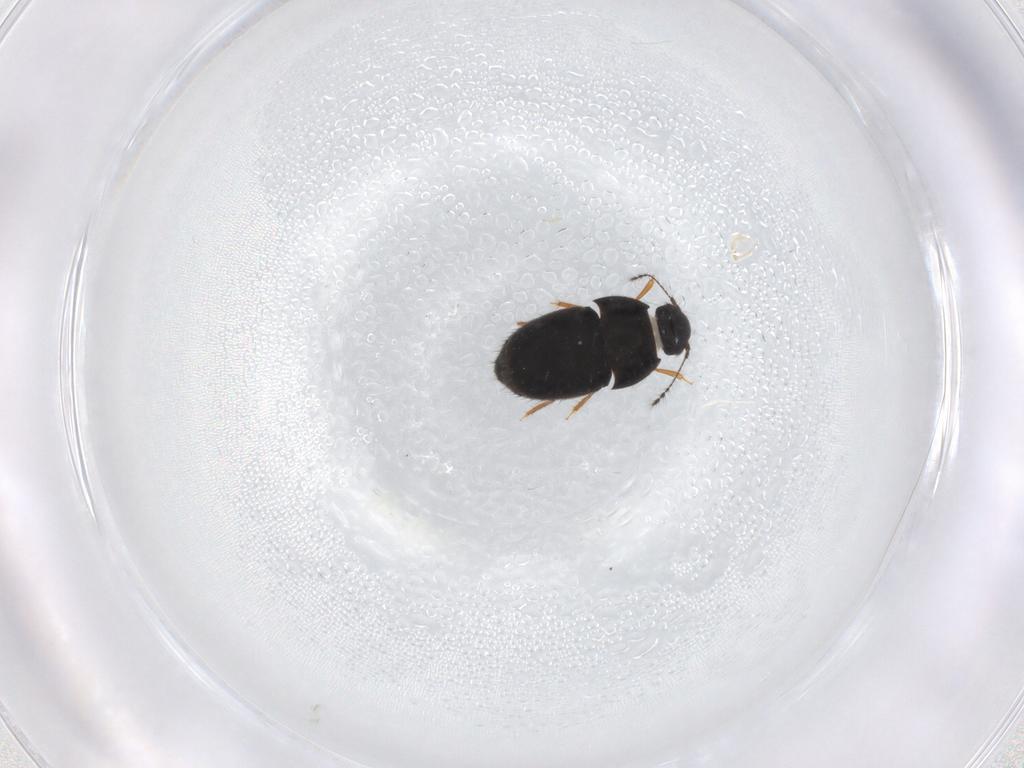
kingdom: Animalia
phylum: Arthropoda
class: Insecta
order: Coleoptera
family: Ptiliidae
